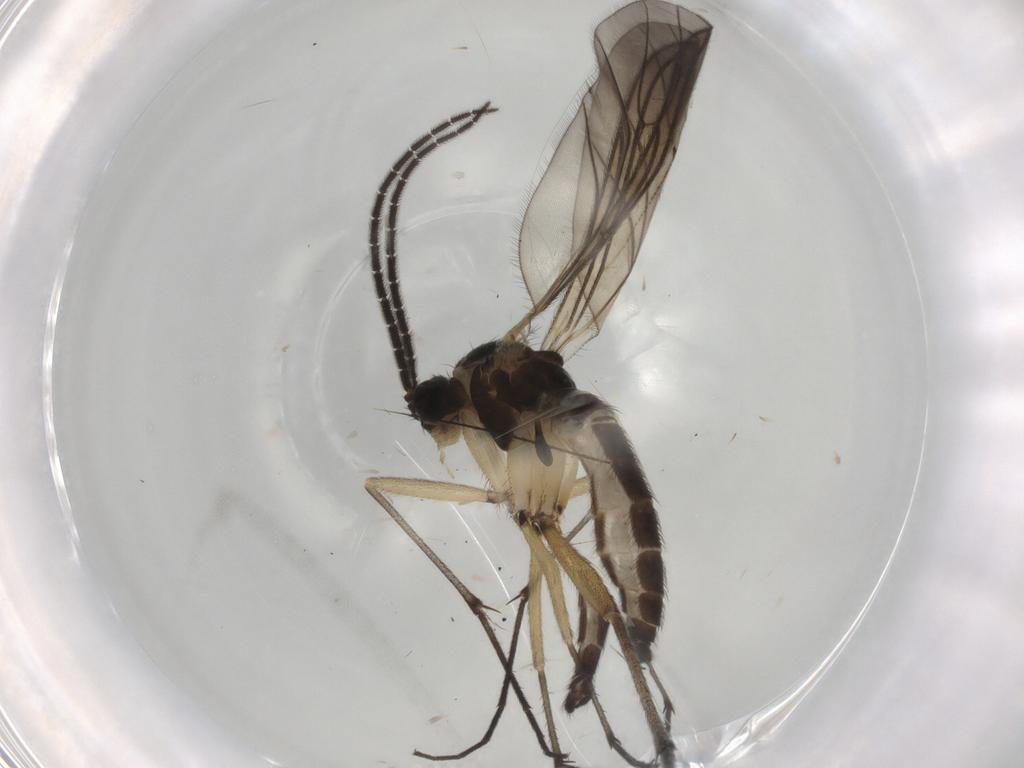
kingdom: Animalia
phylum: Arthropoda
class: Insecta
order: Diptera
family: Sciaridae
